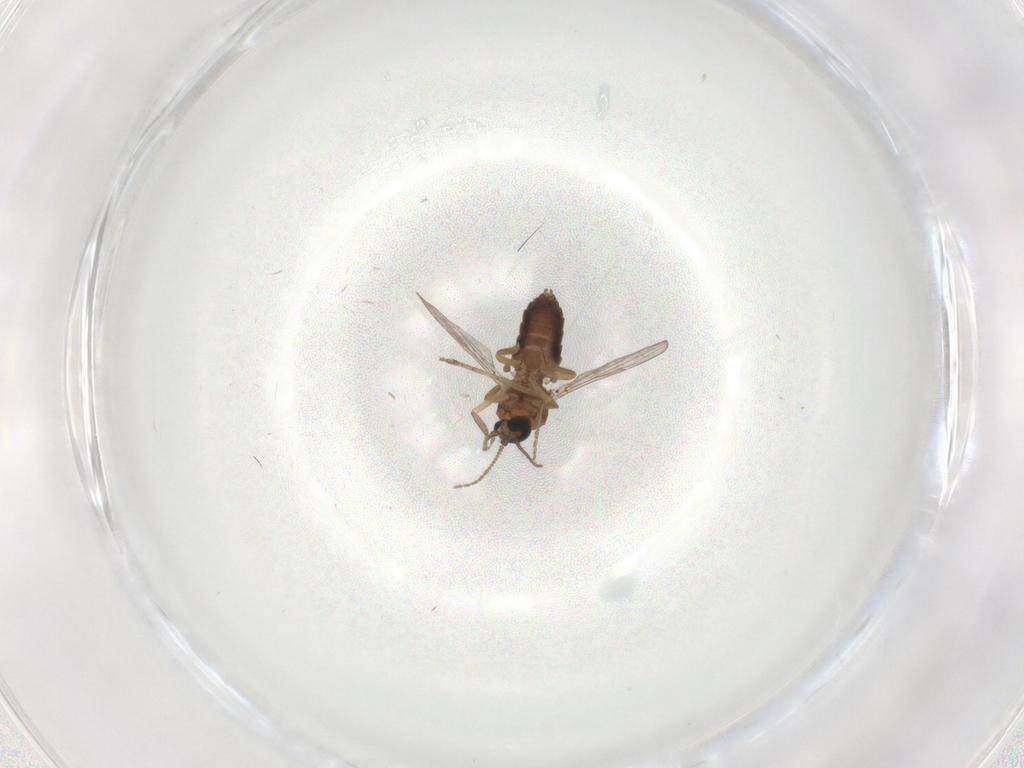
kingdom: Animalia
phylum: Arthropoda
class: Insecta
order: Diptera
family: Ceratopogonidae
